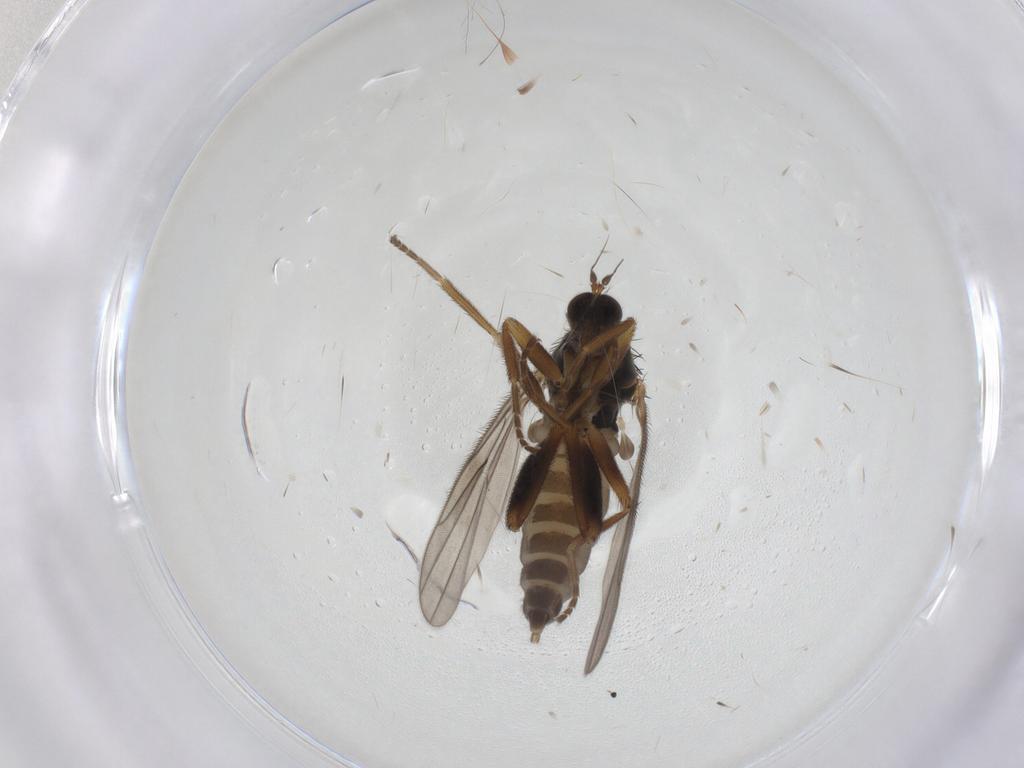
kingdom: Animalia
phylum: Arthropoda
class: Insecta
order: Diptera
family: Hybotidae
